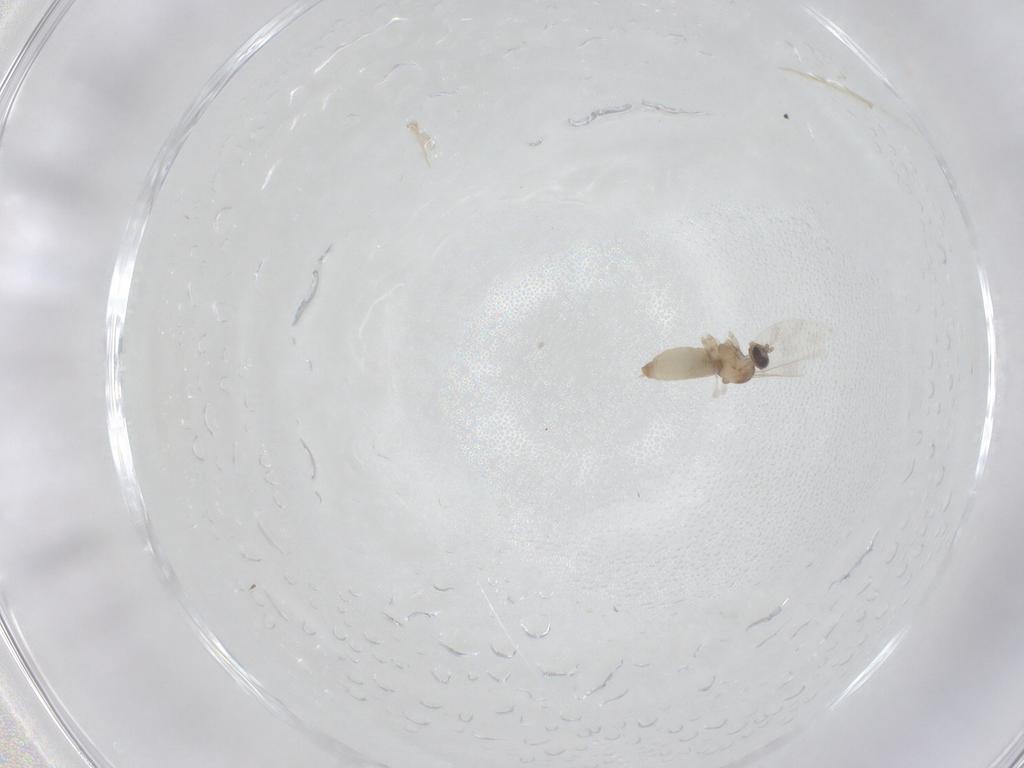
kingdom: Animalia
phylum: Arthropoda
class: Insecta
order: Diptera
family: Cecidomyiidae
